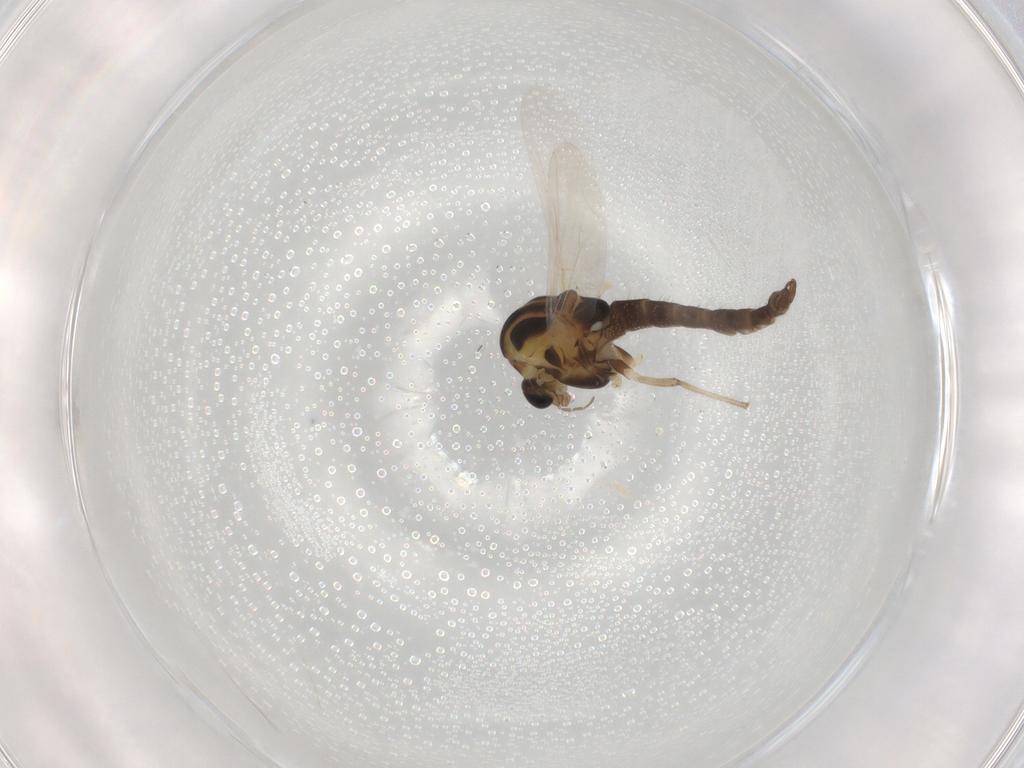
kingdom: Animalia
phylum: Arthropoda
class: Insecta
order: Diptera
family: Chironomidae
